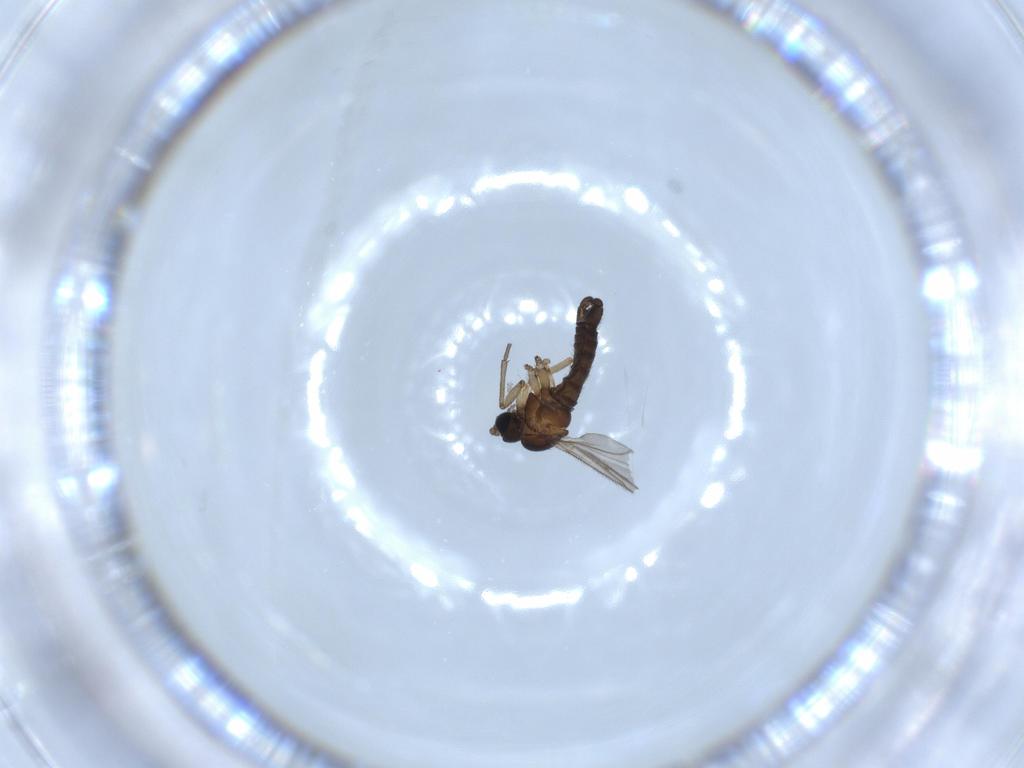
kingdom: Animalia
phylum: Arthropoda
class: Insecta
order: Diptera
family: Sciaridae
